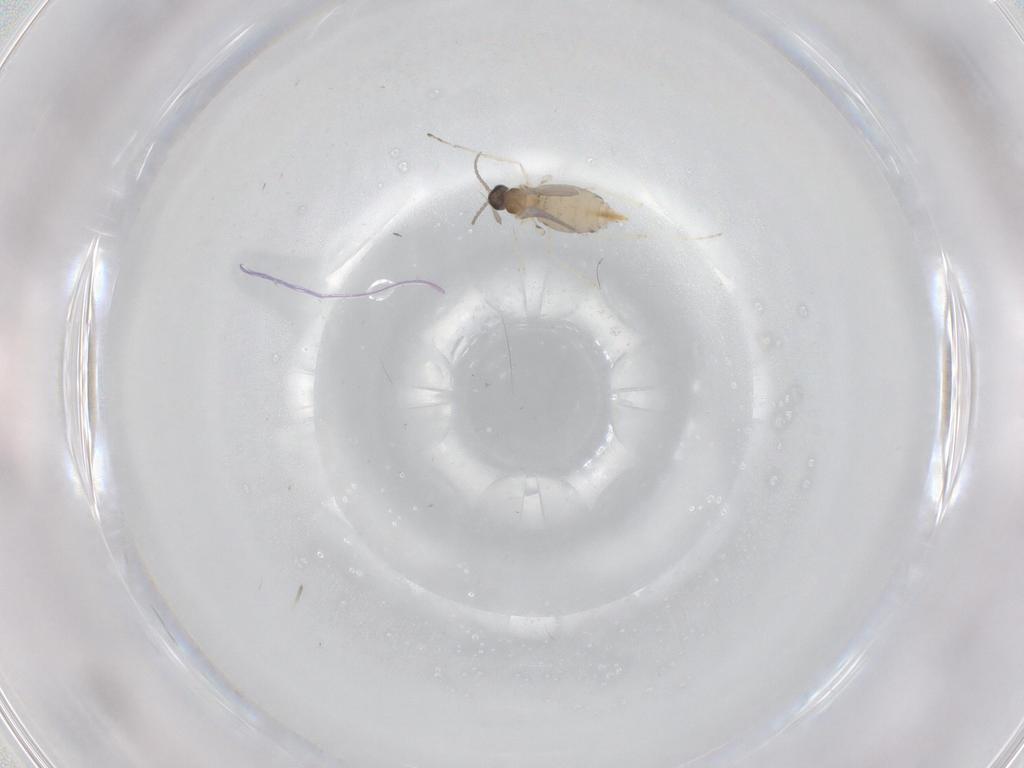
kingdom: Animalia
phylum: Arthropoda
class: Insecta
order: Diptera
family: Cecidomyiidae
